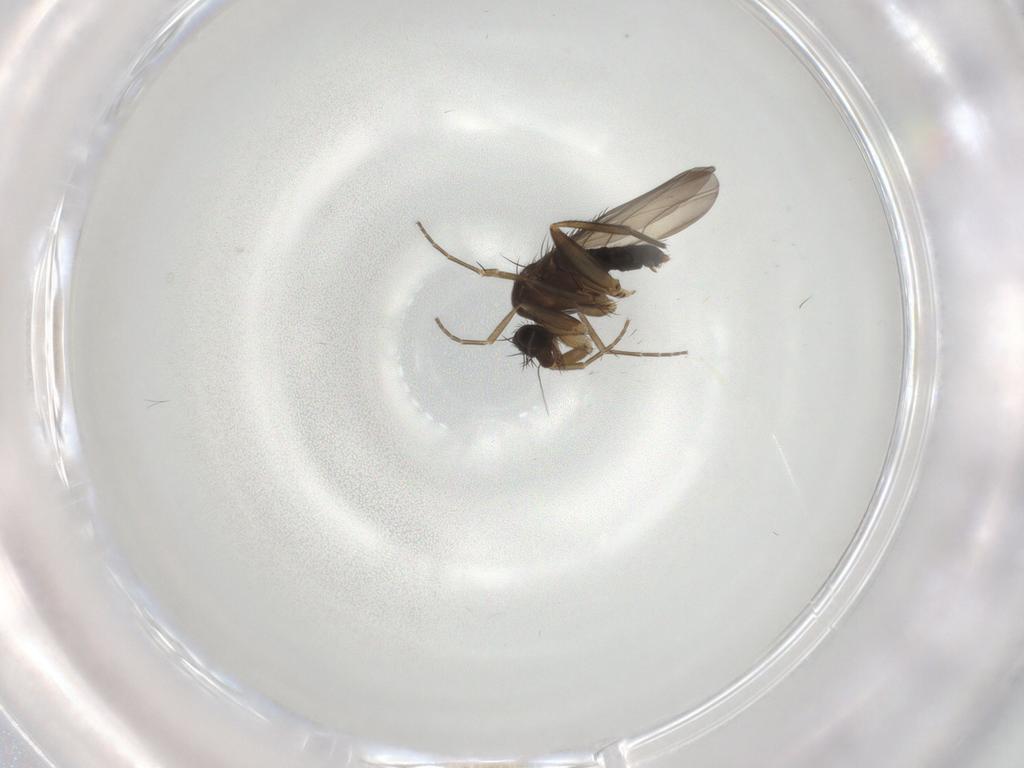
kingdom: Animalia
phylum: Arthropoda
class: Insecta
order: Diptera
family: Phoridae
